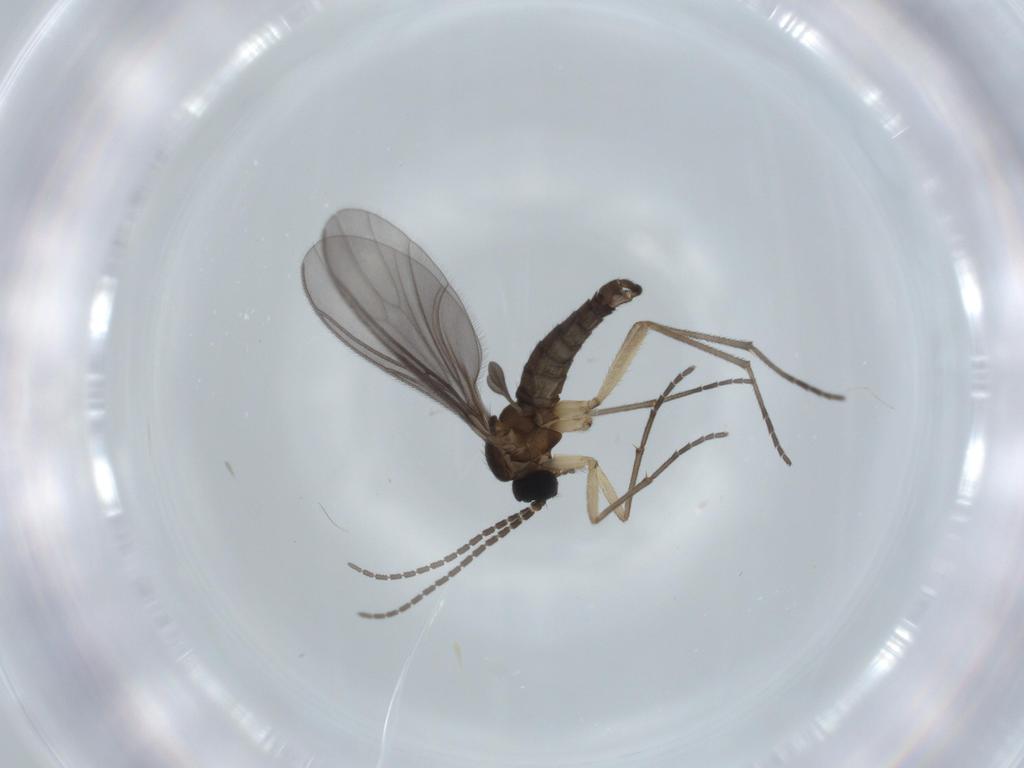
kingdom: Animalia
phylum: Arthropoda
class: Insecta
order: Diptera
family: Sciaridae
